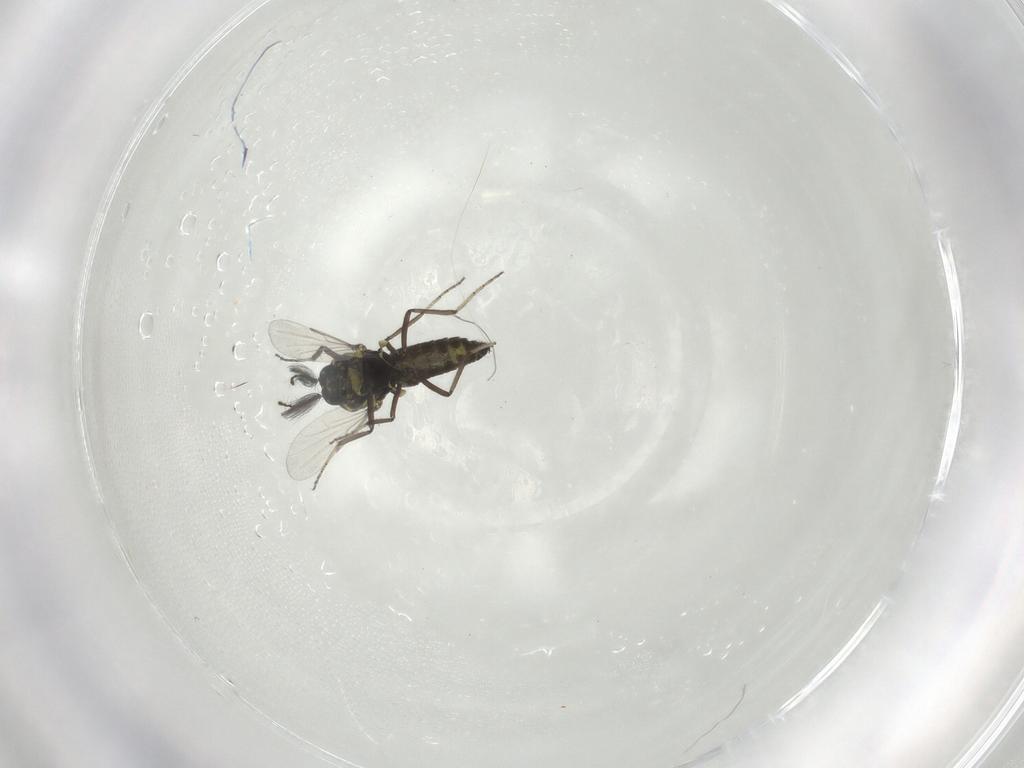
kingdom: Animalia
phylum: Arthropoda
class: Insecta
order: Diptera
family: Ceratopogonidae
